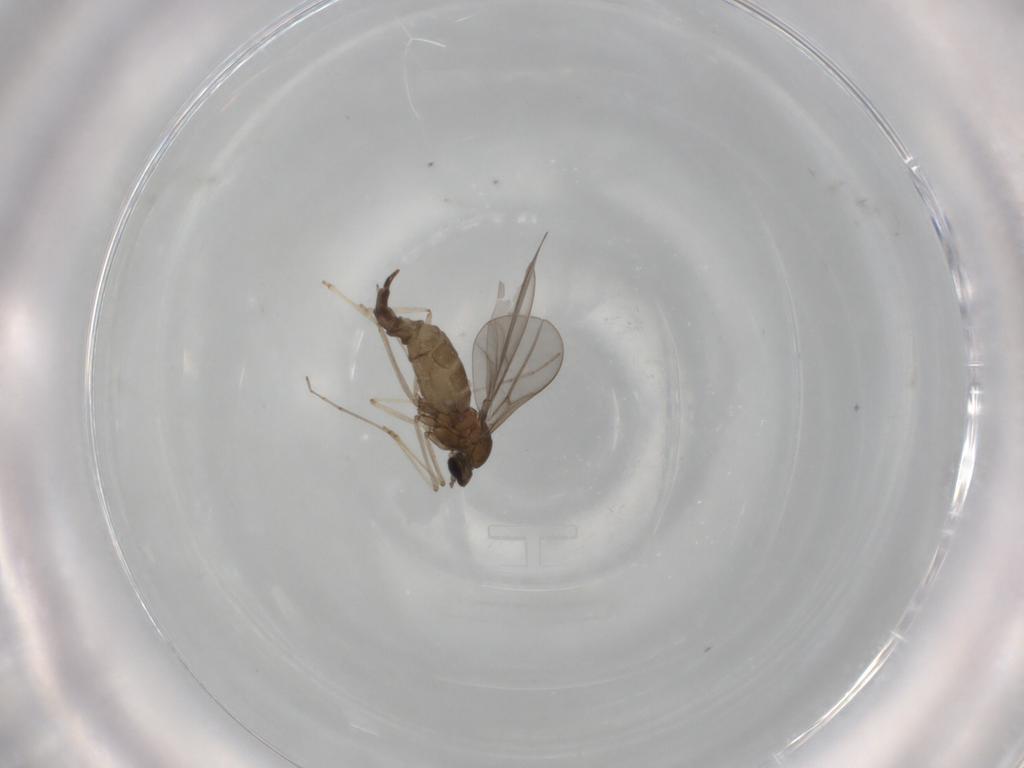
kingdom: Animalia
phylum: Arthropoda
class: Insecta
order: Diptera
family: Cecidomyiidae
